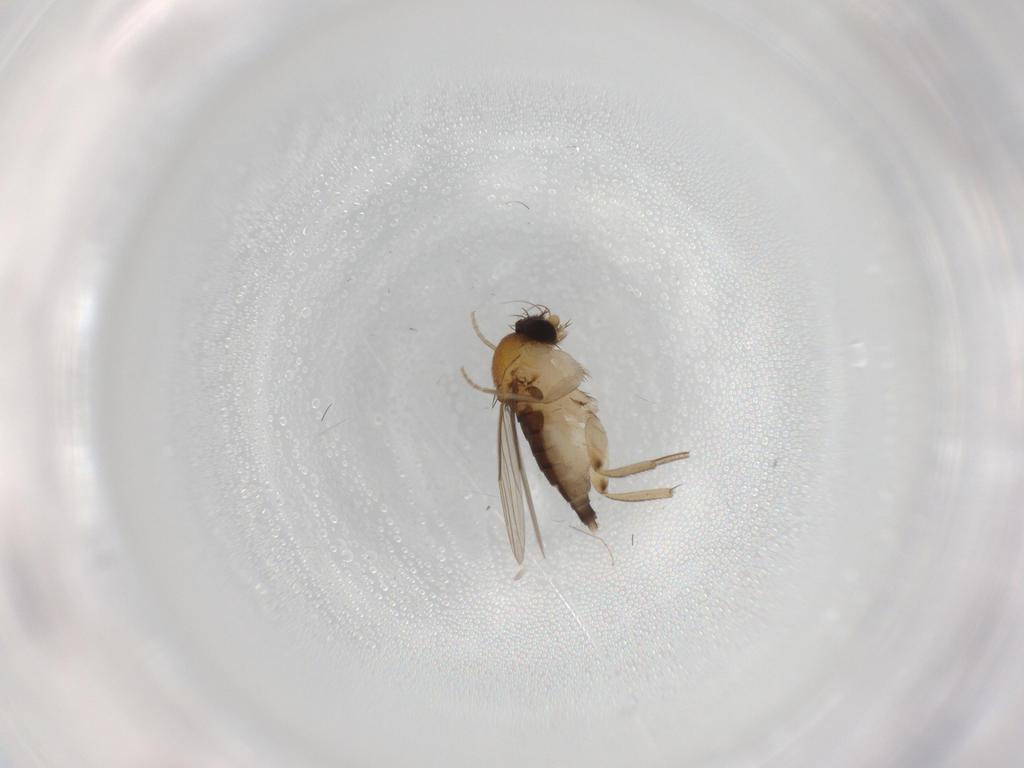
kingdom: Animalia
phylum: Arthropoda
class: Insecta
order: Diptera
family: Phoridae
